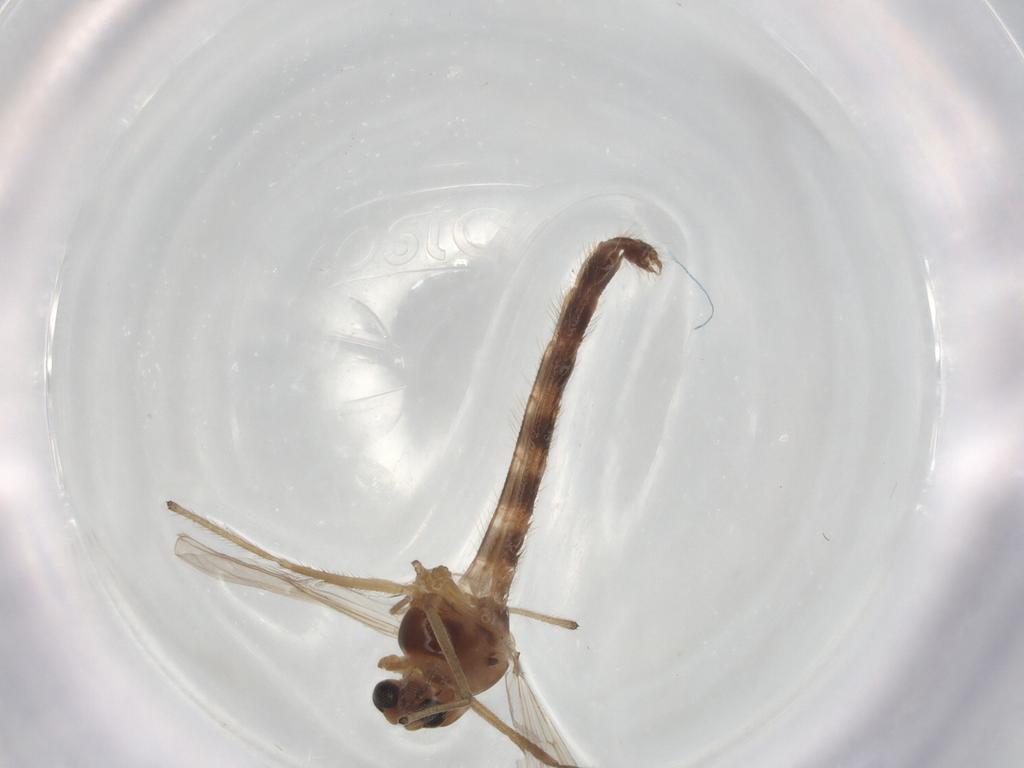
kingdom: Animalia
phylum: Arthropoda
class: Insecta
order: Diptera
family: Chironomidae
